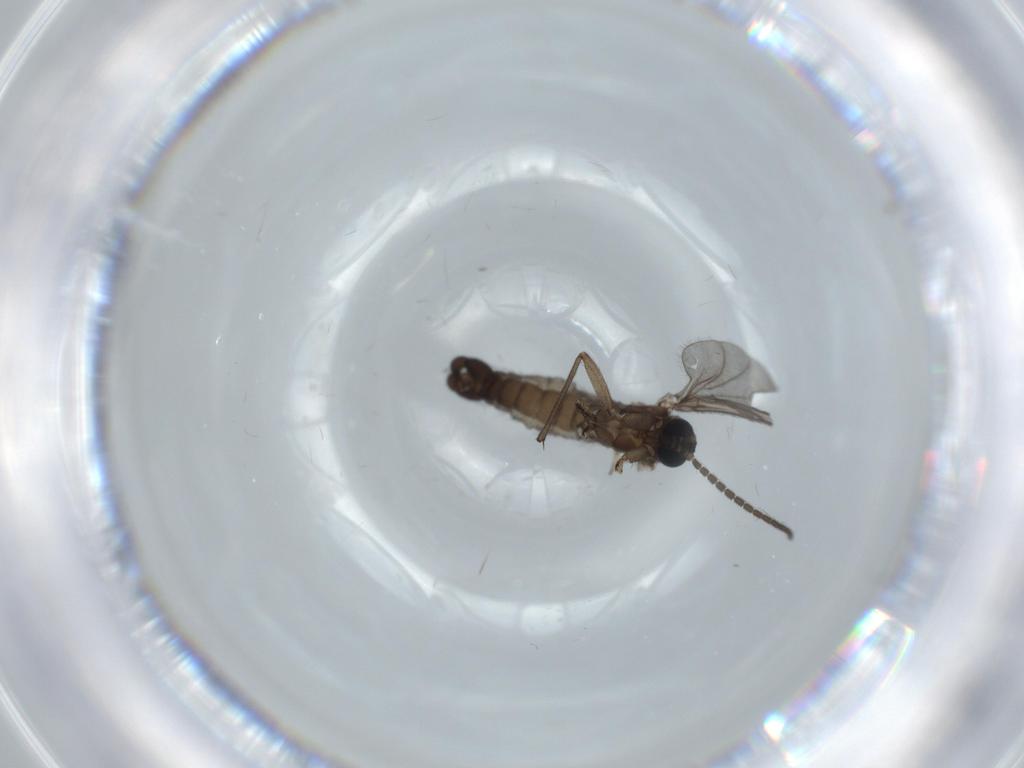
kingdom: Animalia
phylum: Arthropoda
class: Insecta
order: Diptera
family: Sciaridae
